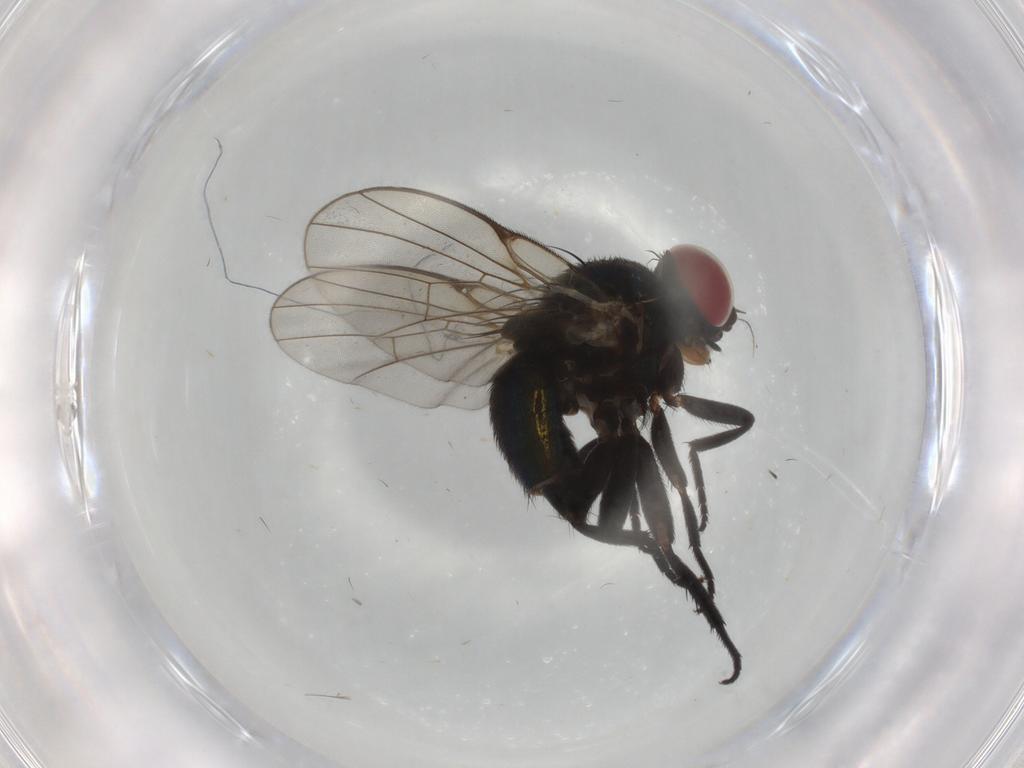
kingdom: Animalia
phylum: Arthropoda
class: Insecta
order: Diptera
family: Agromyzidae
